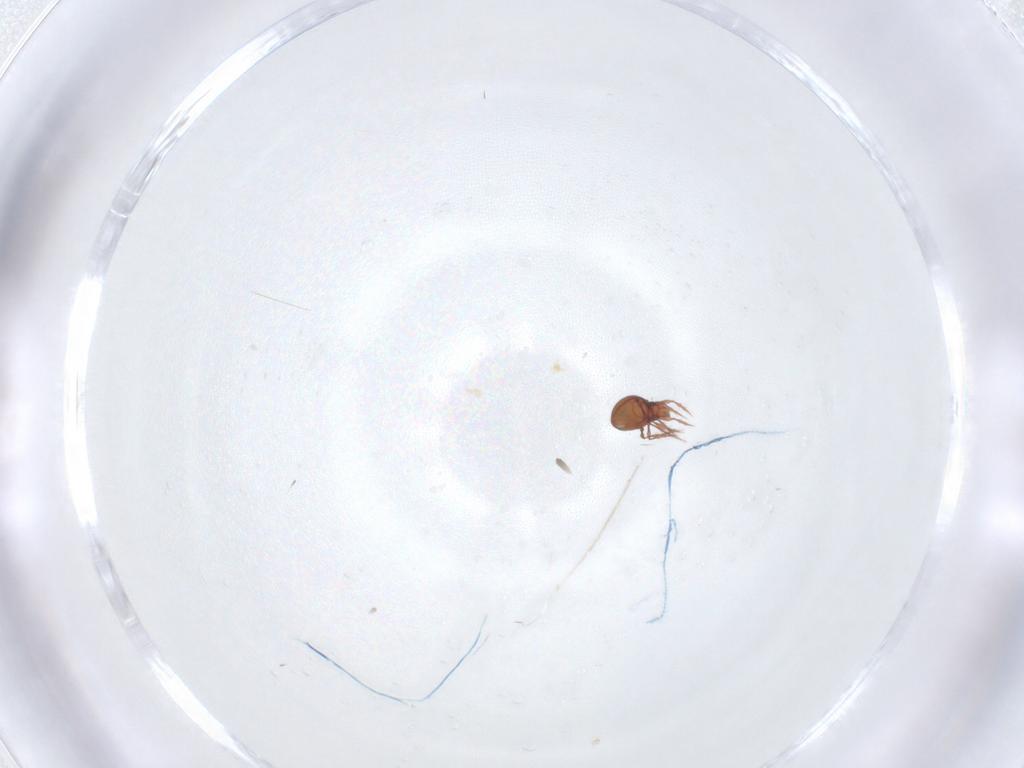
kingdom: Animalia
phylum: Arthropoda
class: Arachnida
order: Sarcoptiformes
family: Oppiidae
